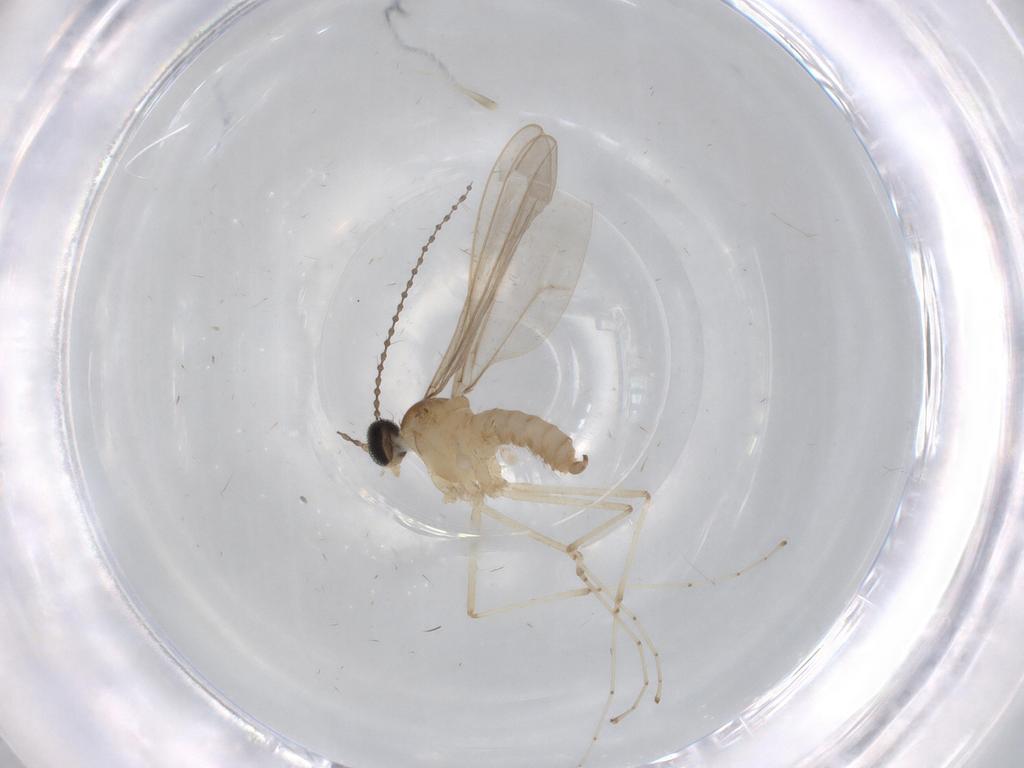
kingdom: Animalia
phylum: Arthropoda
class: Insecta
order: Diptera
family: Cecidomyiidae
